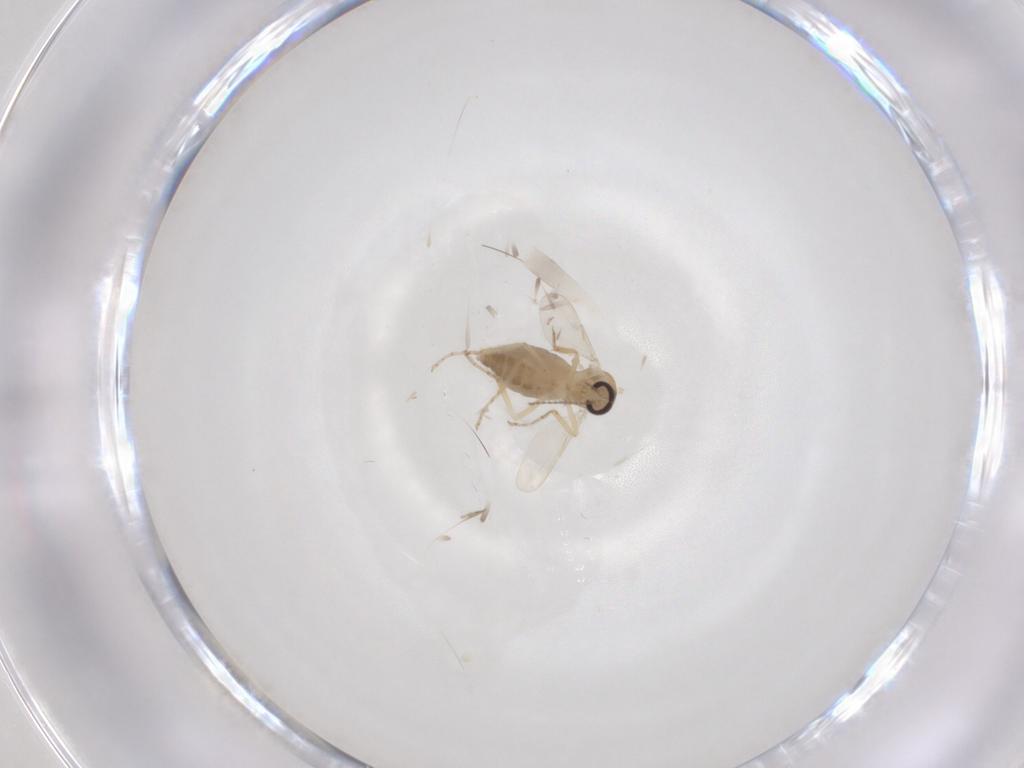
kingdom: Animalia
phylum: Arthropoda
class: Insecta
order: Diptera
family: Ceratopogonidae
